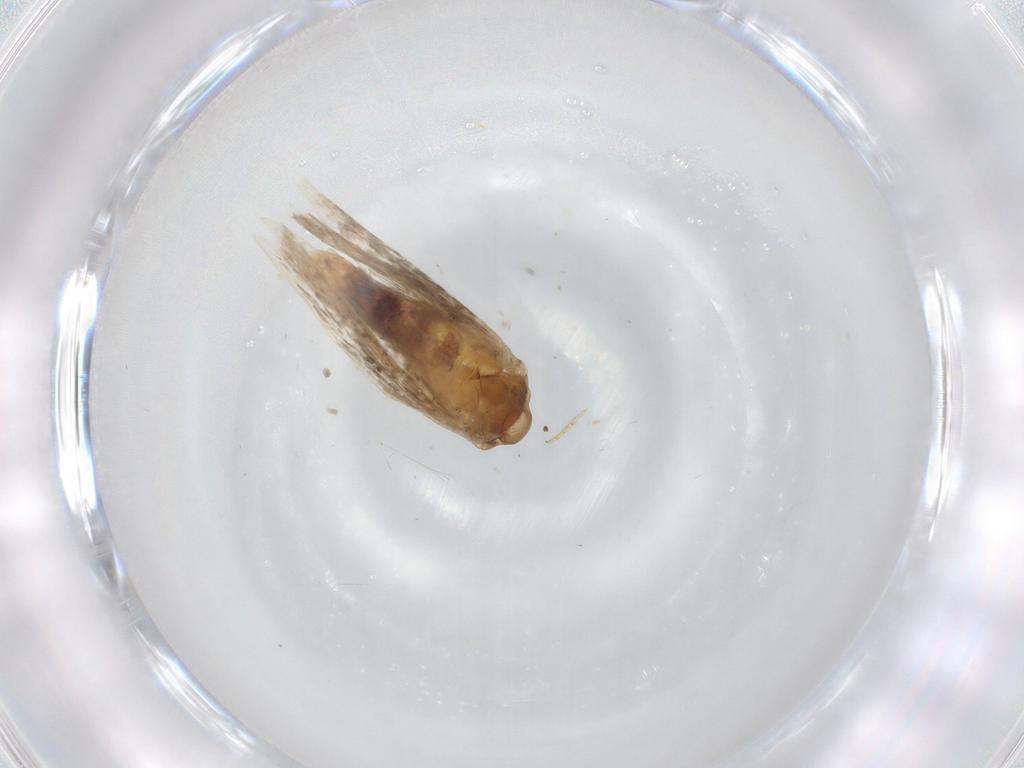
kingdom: Animalia
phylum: Arthropoda
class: Insecta
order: Lepidoptera
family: Gelechiidae
